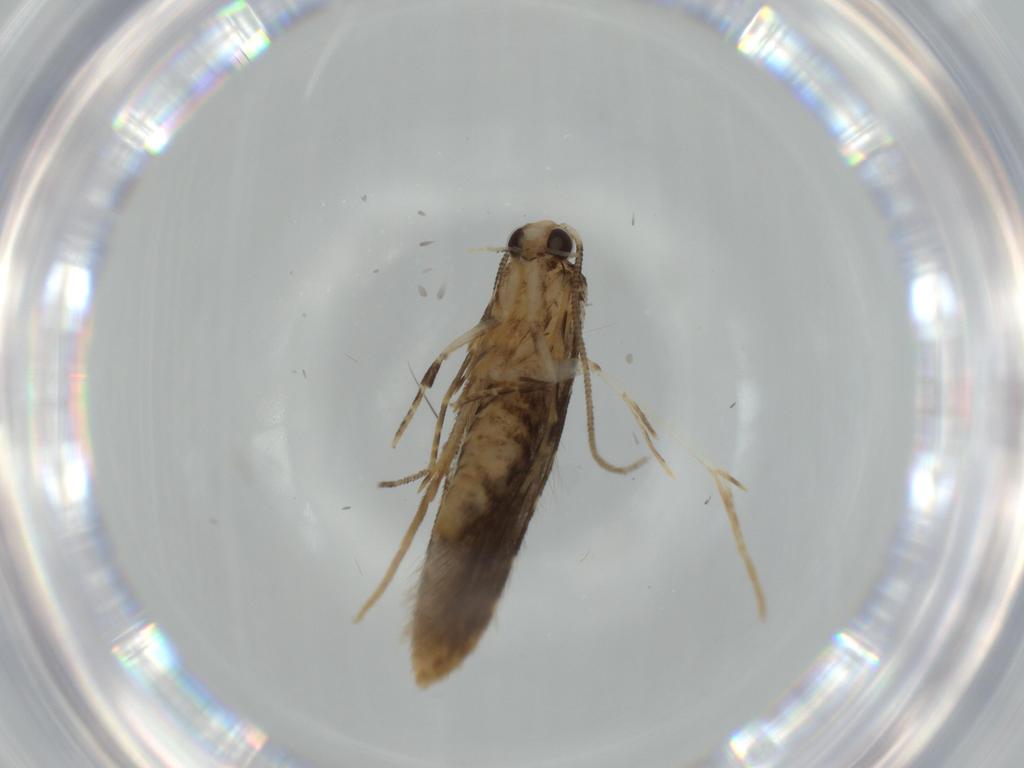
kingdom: Animalia
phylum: Arthropoda
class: Insecta
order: Lepidoptera
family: Tineidae
